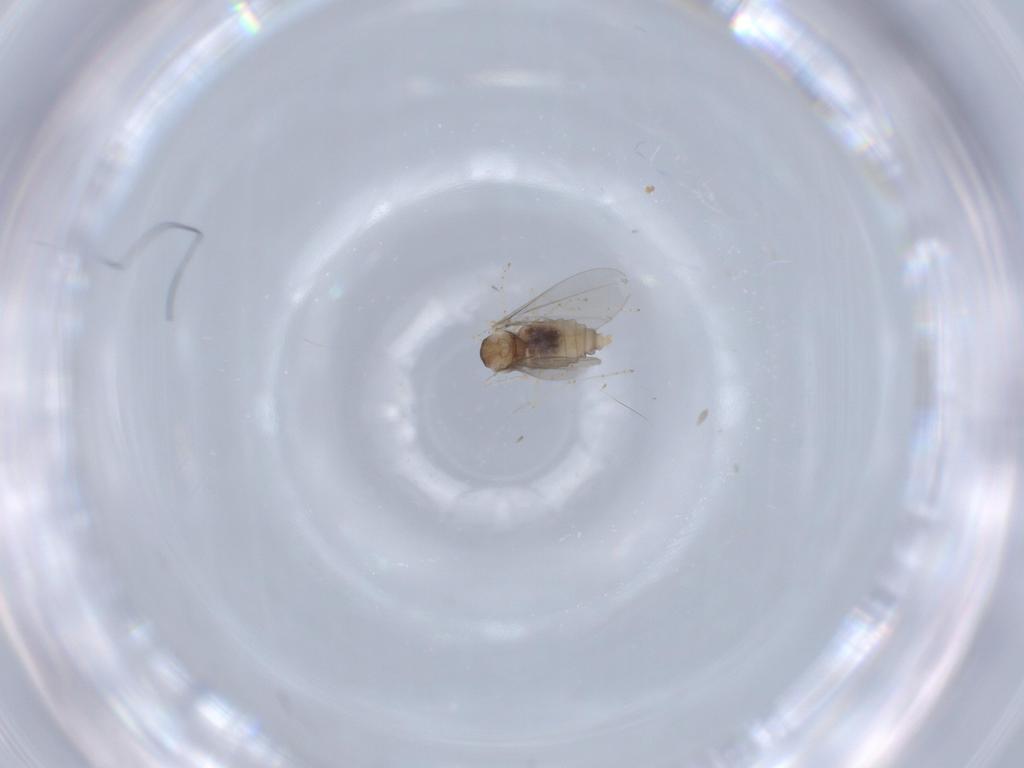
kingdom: Animalia
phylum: Arthropoda
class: Insecta
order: Diptera
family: Cecidomyiidae
